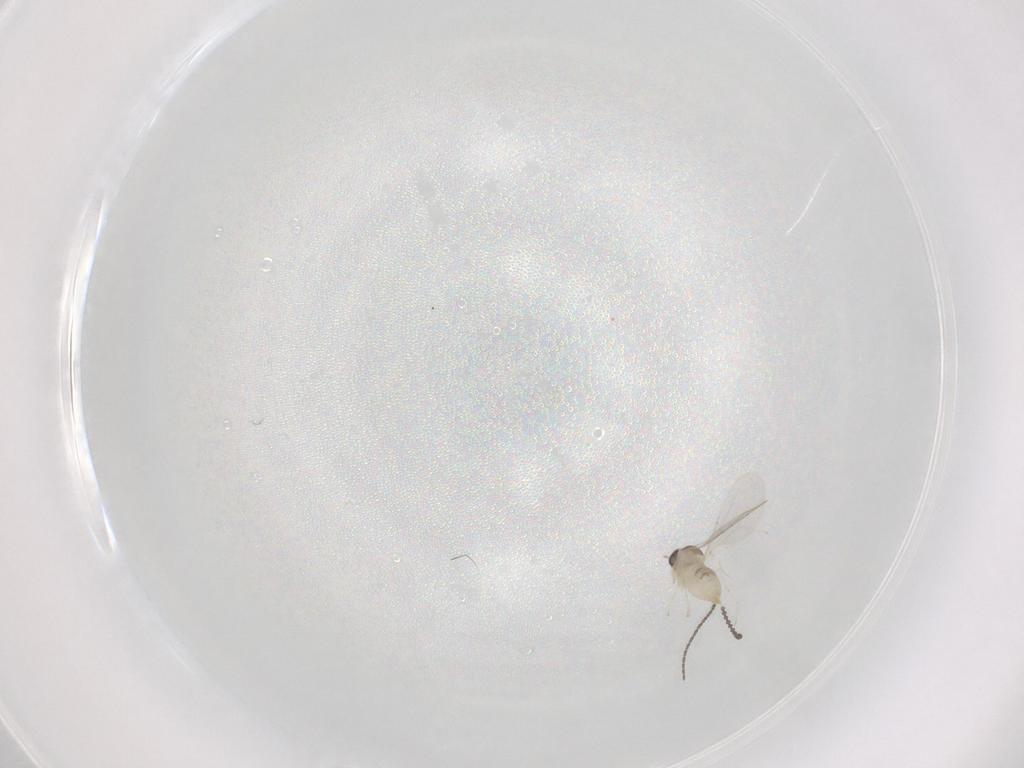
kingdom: Animalia
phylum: Arthropoda
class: Insecta
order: Diptera
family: Cecidomyiidae
